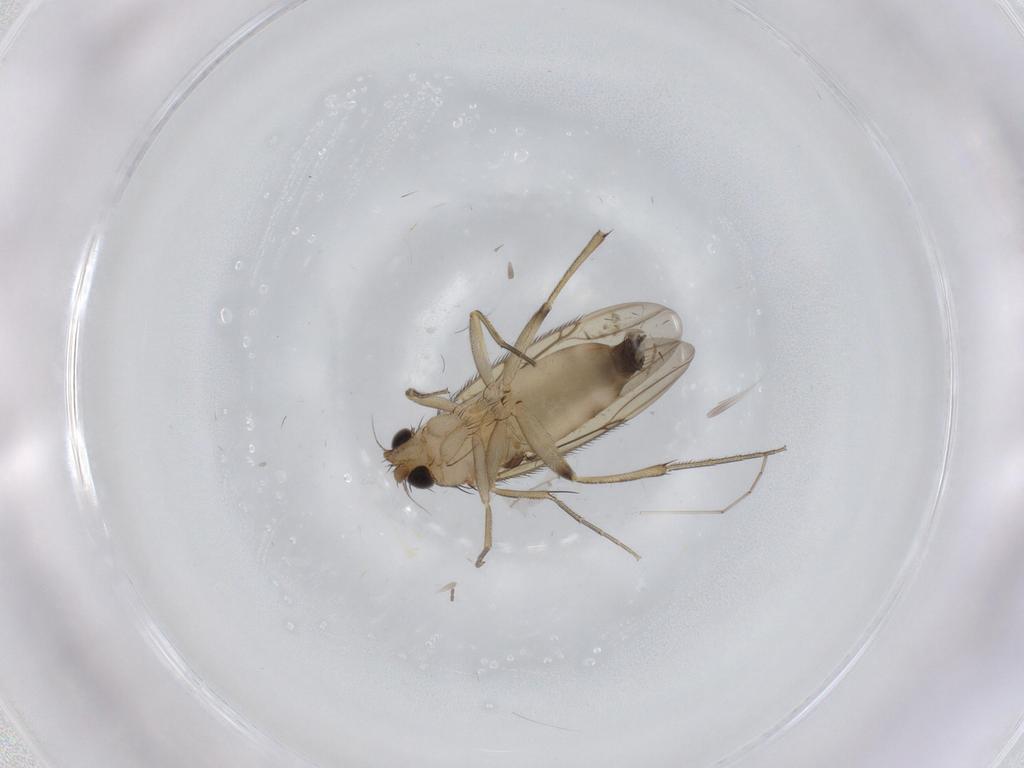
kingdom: Animalia
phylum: Arthropoda
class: Insecta
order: Diptera
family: Phoridae
